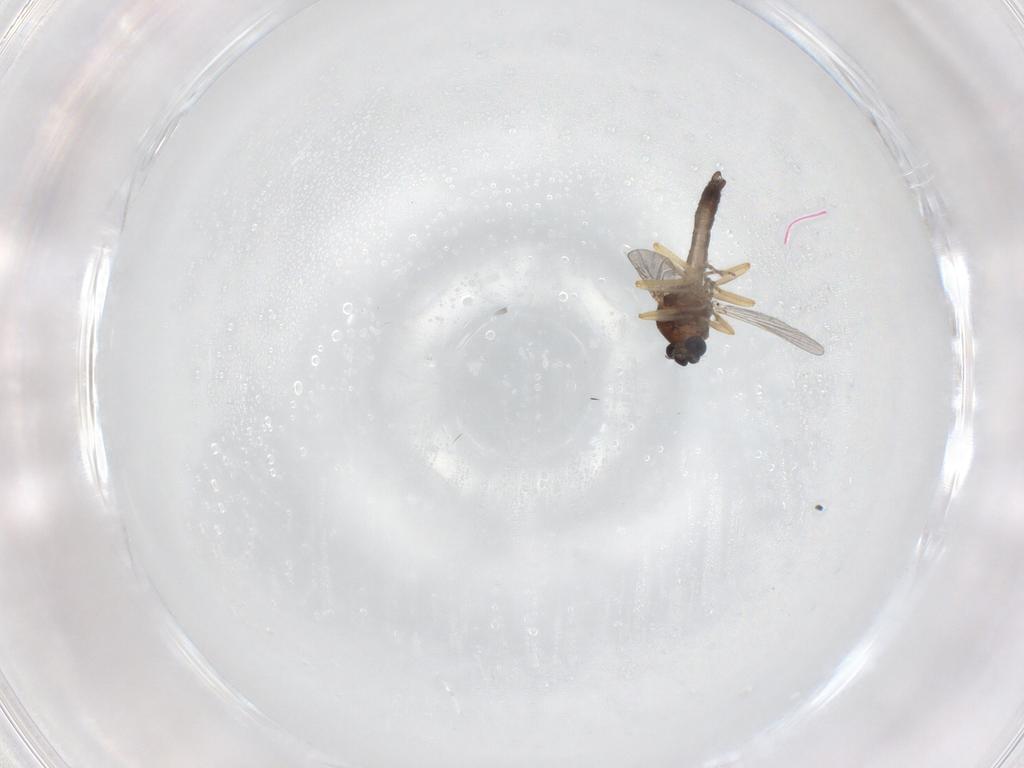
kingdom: Animalia
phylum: Arthropoda
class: Insecta
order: Diptera
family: Ceratopogonidae
